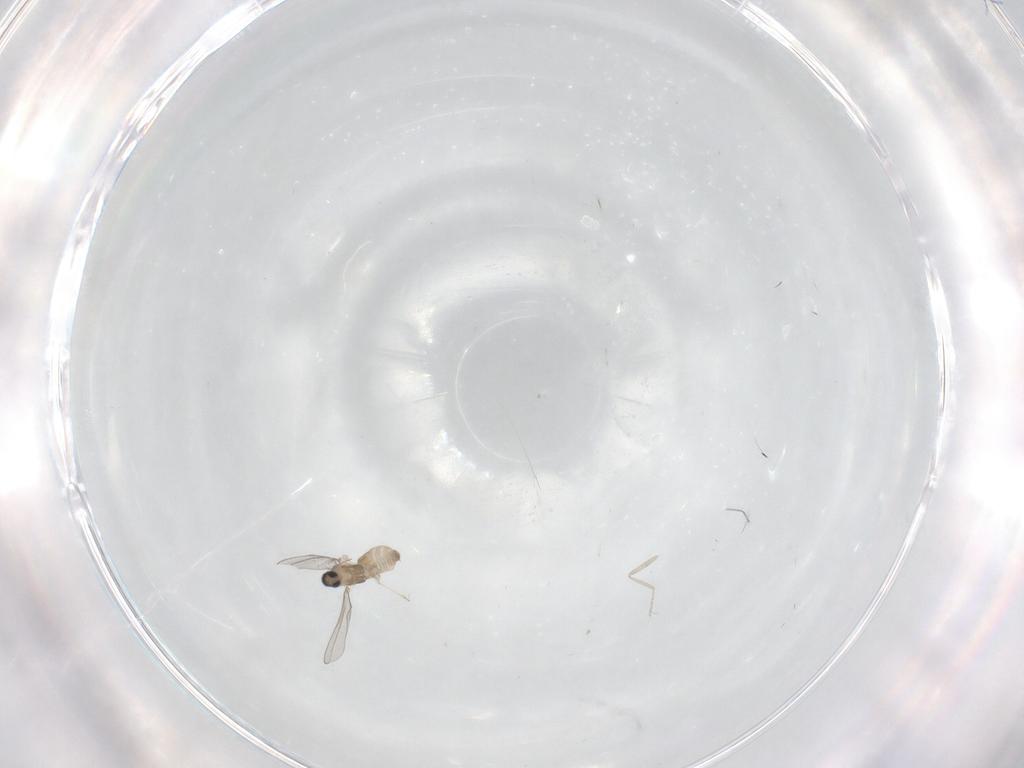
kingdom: Animalia
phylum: Arthropoda
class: Insecta
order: Diptera
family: Cecidomyiidae
